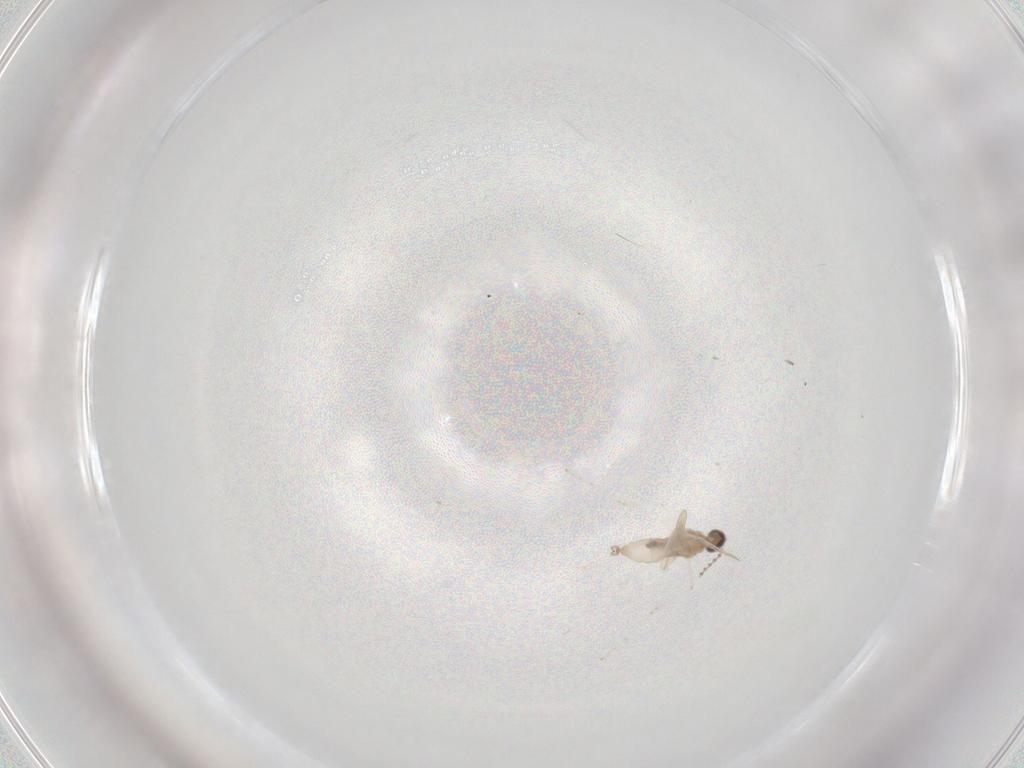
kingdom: Animalia
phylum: Arthropoda
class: Insecta
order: Diptera
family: Cecidomyiidae
